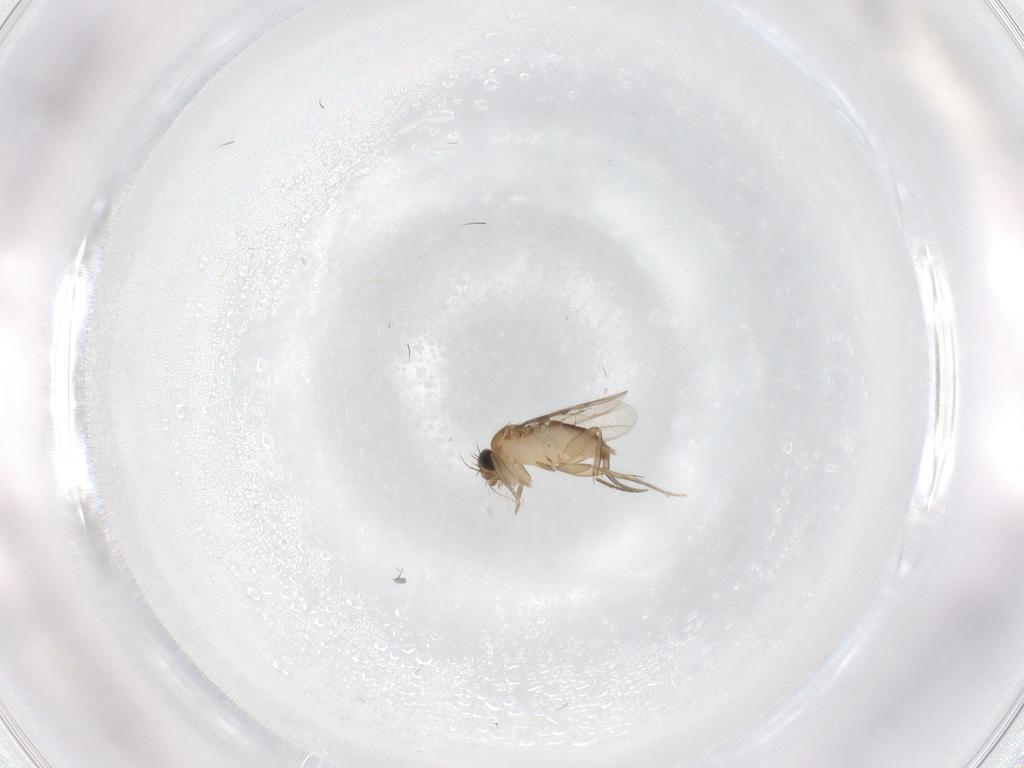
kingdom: Animalia
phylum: Arthropoda
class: Insecta
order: Diptera
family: Phoridae
